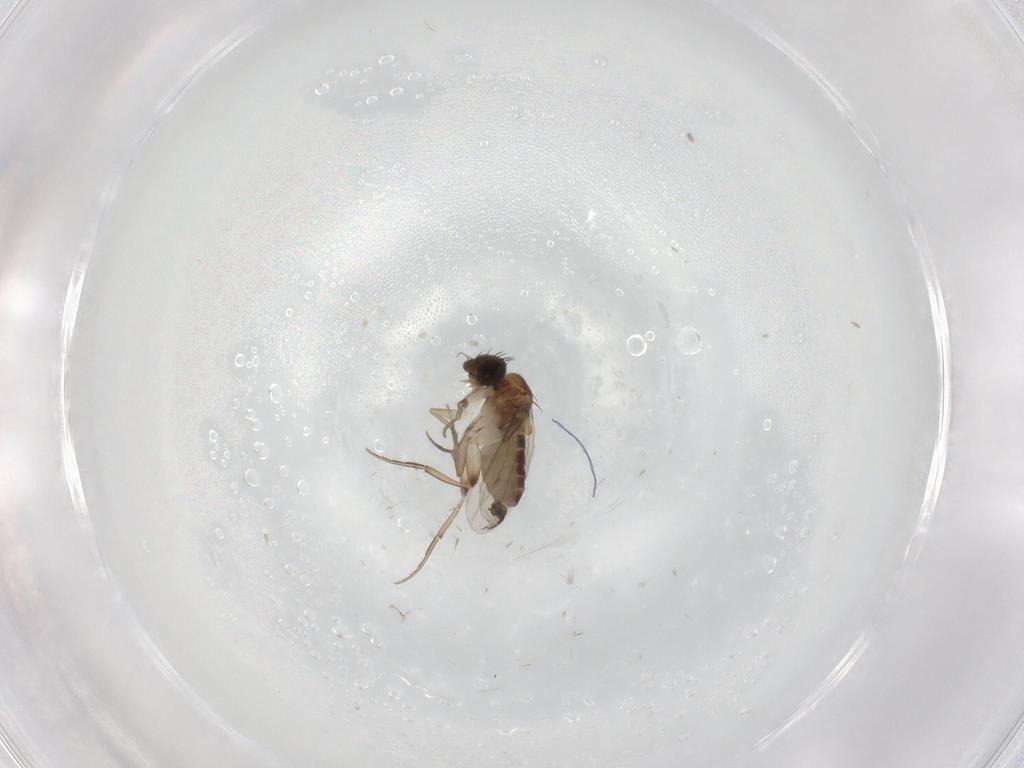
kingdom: Animalia
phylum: Arthropoda
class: Insecta
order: Diptera
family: Phoridae
